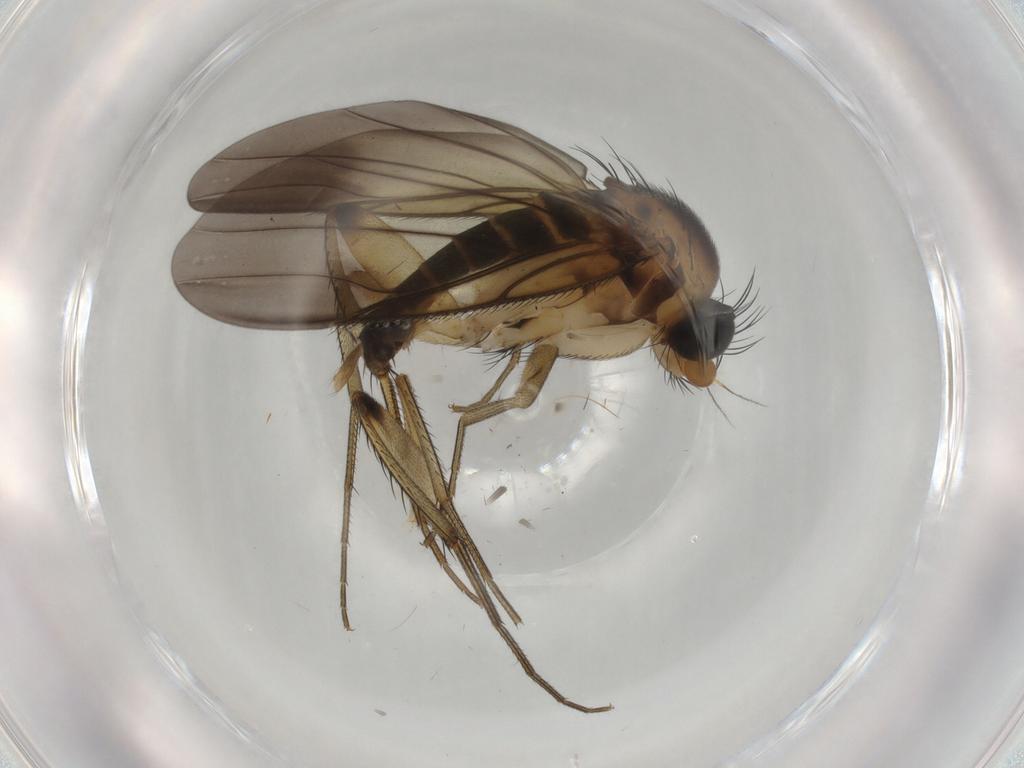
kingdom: Animalia
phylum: Arthropoda
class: Insecta
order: Diptera
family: Phoridae
